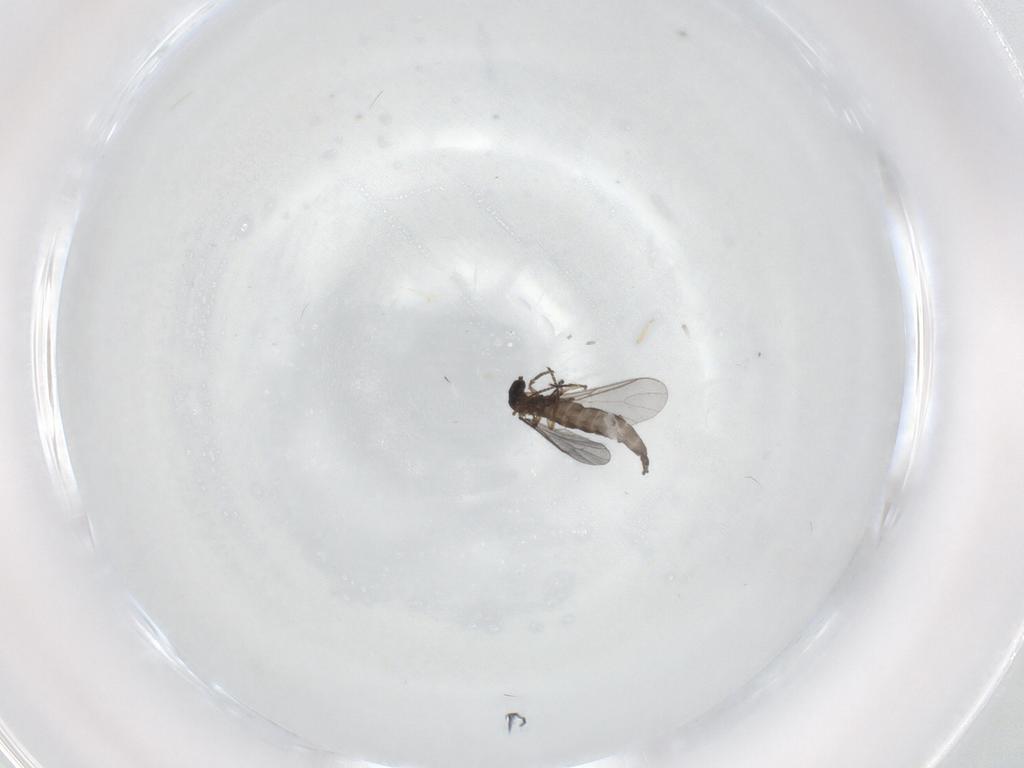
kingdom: Animalia
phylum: Arthropoda
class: Insecta
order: Diptera
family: Sciaridae
